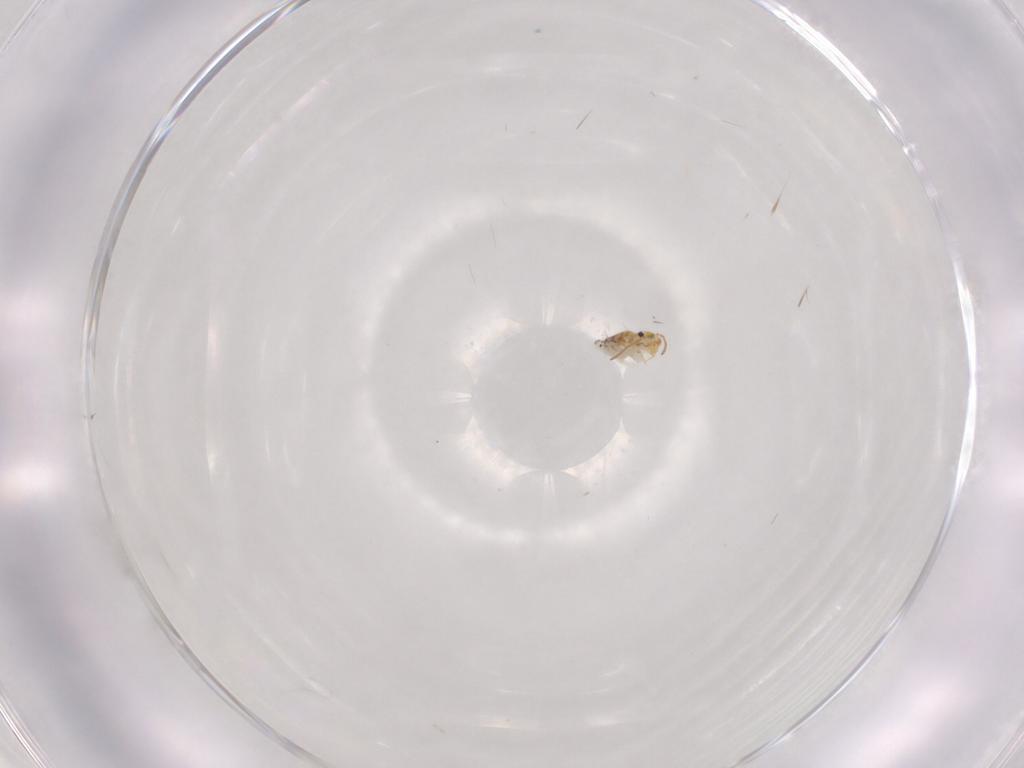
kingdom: Animalia
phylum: Arthropoda
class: Collembola
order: Symphypleona
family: Bourletiellidae
